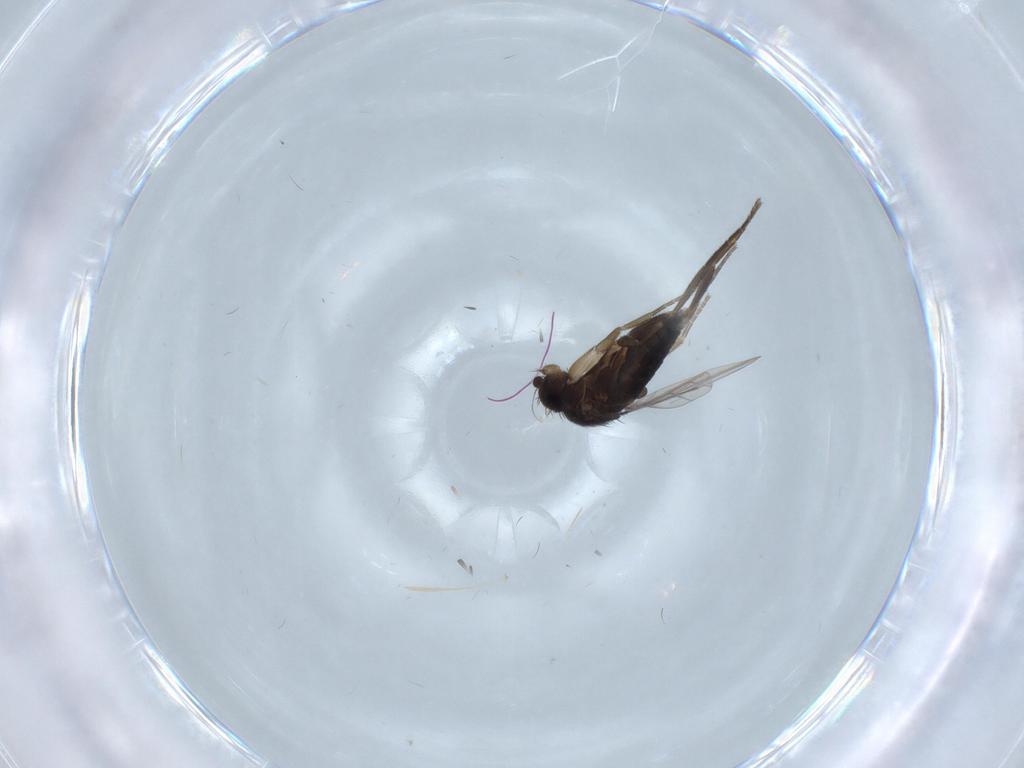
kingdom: Animalia
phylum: Arthropoda
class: Insecta
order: Diptera
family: Phoridae
